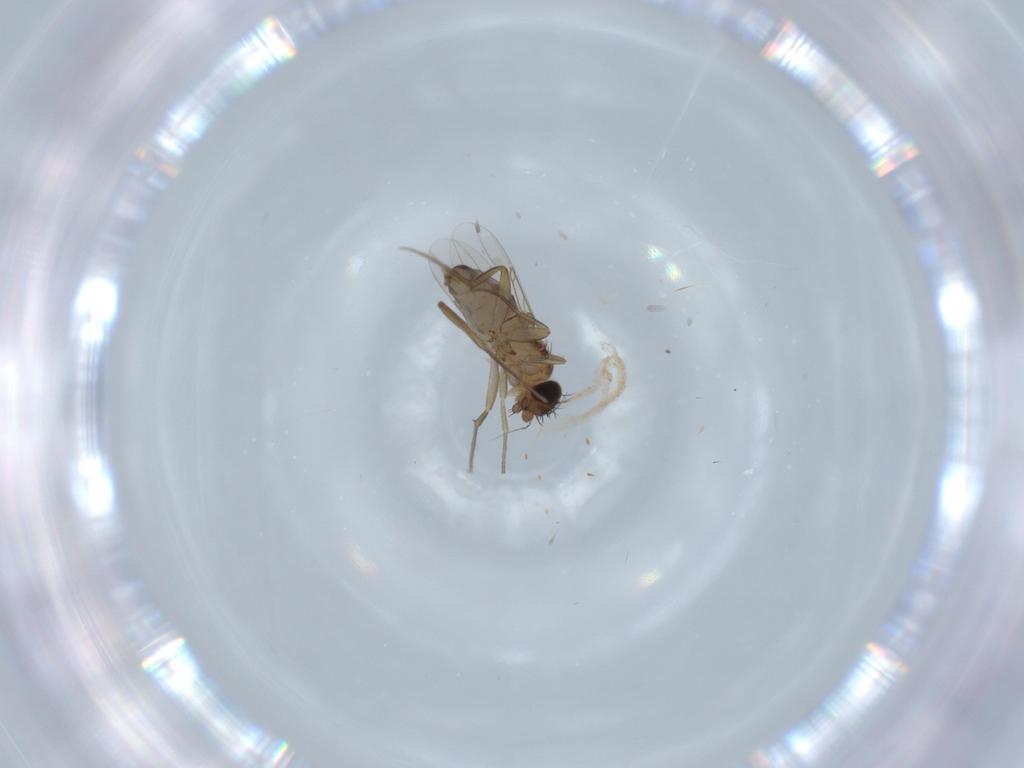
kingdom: Animalia
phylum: Arthropoda
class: Insecta
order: Diptera
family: Phoridae
